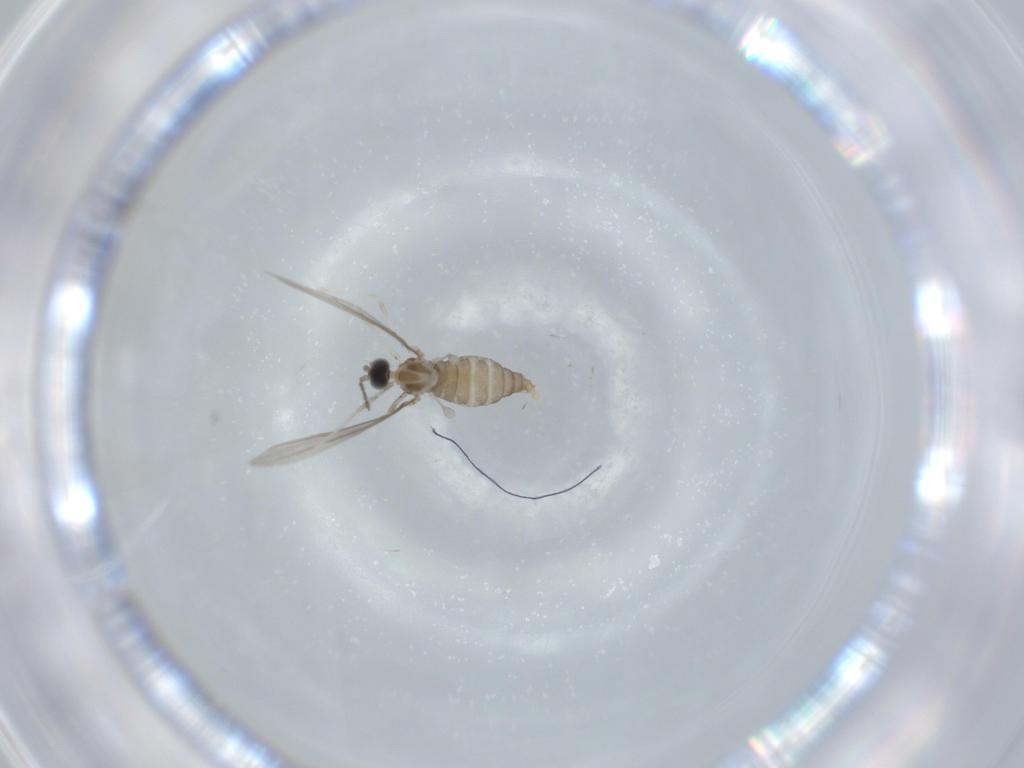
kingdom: Animalia
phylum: Arthropoda
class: Insecta
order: Diptera
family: Cecidomyiidae
